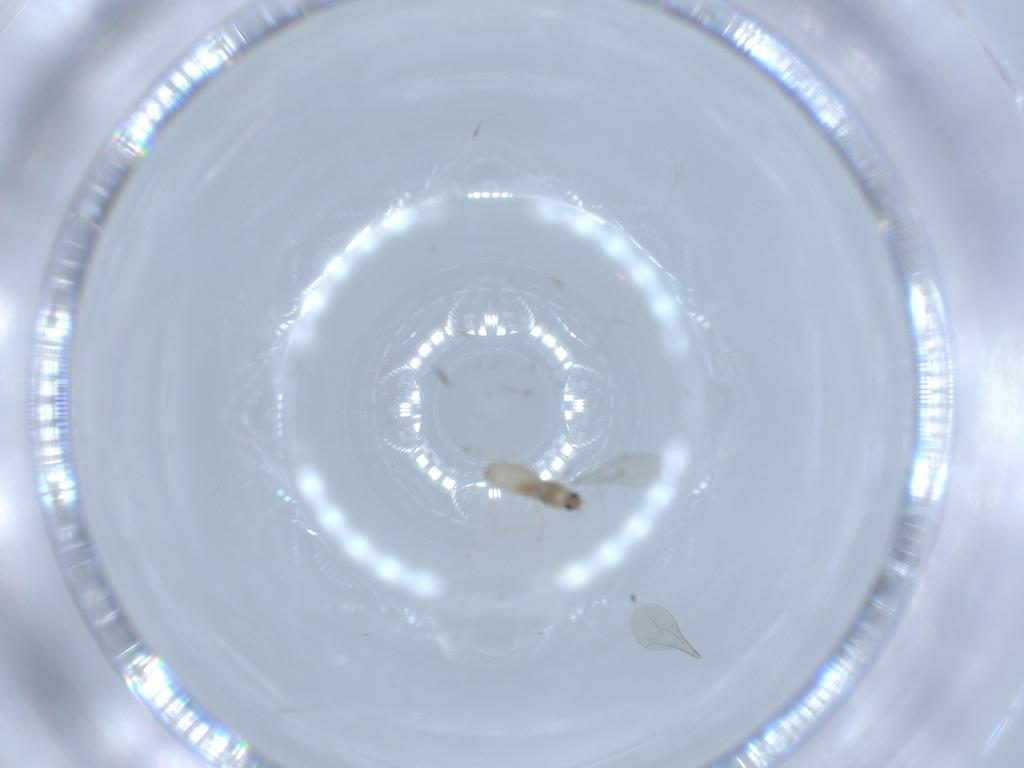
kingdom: Animalia
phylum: Arthropoda
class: Insecta
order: Diptera
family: Cecidomyiidae
